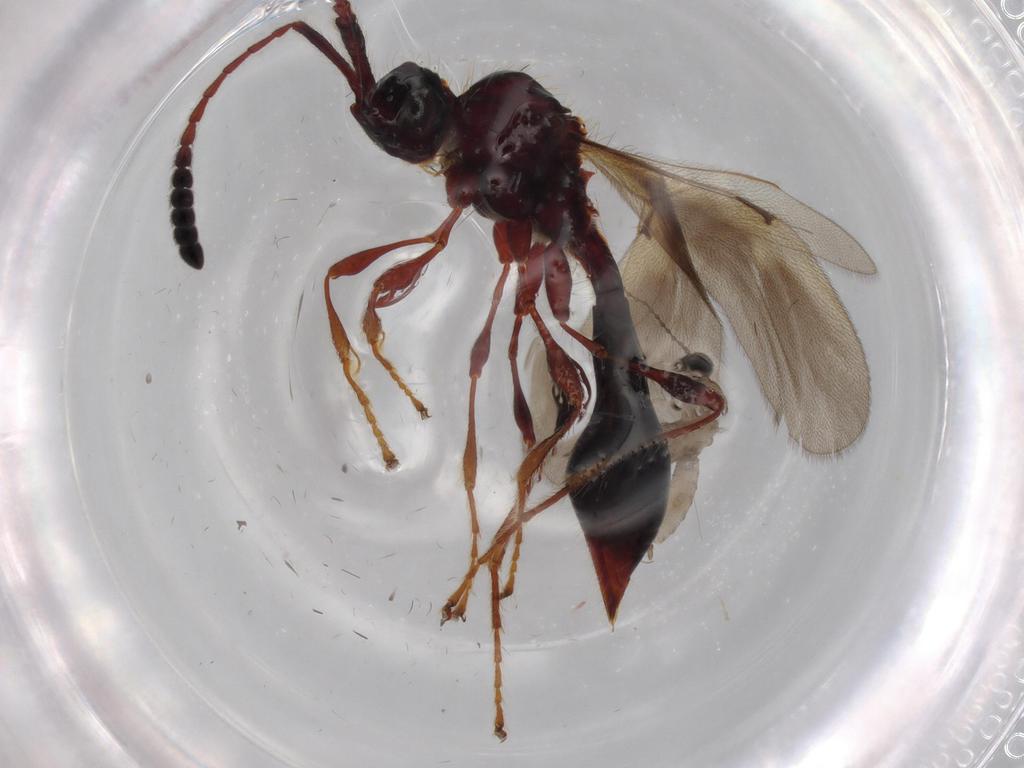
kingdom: Animalia
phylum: Arthropoda
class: Insecta
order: Hymenoptera
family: Diapriidae
